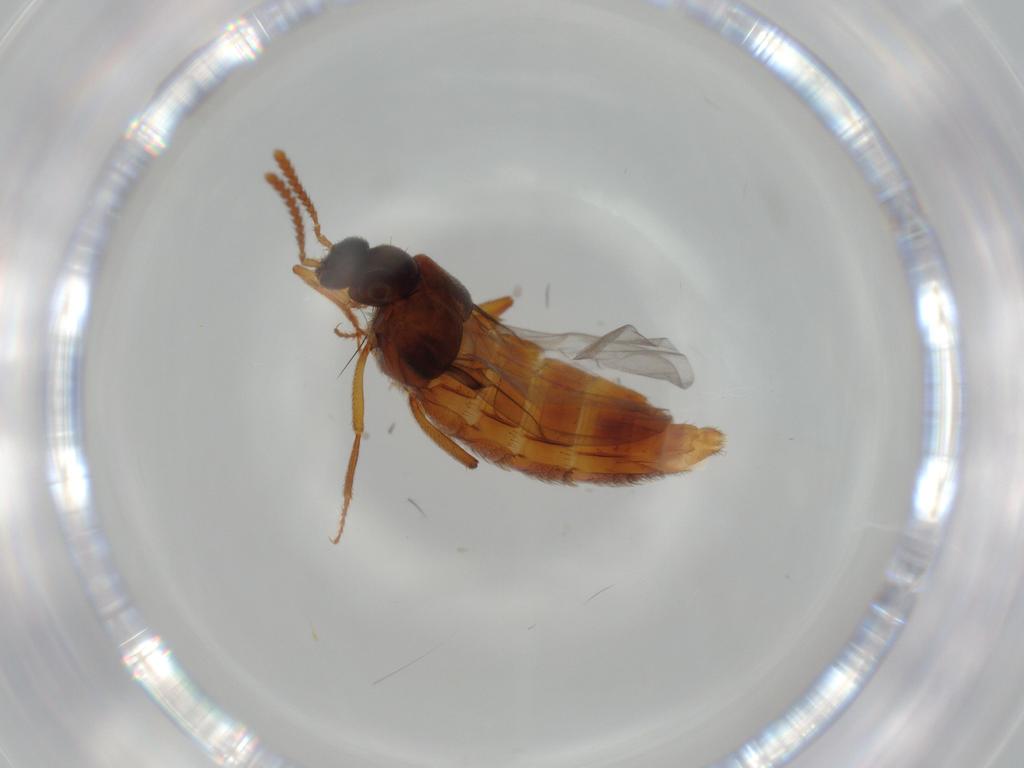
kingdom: Animalia
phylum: Arthropoda
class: Insecta
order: Coleoptera
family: Staphylinidae
